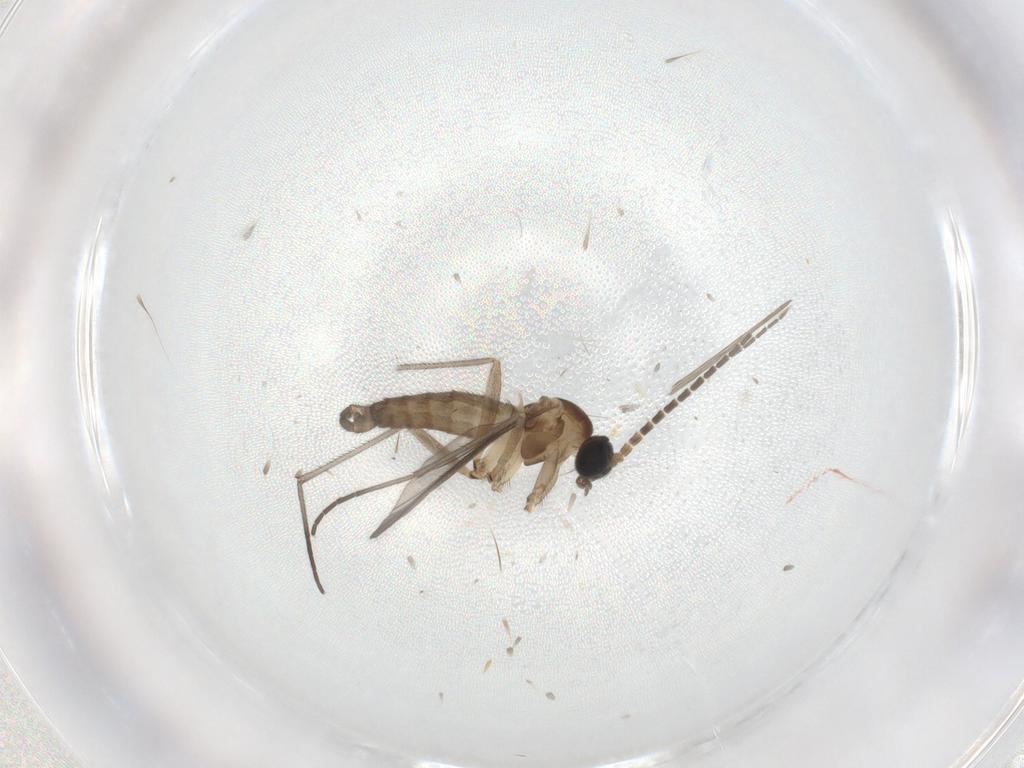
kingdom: Animalia
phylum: Arthropoda
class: Insecta
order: Diptera
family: Sciaridae
